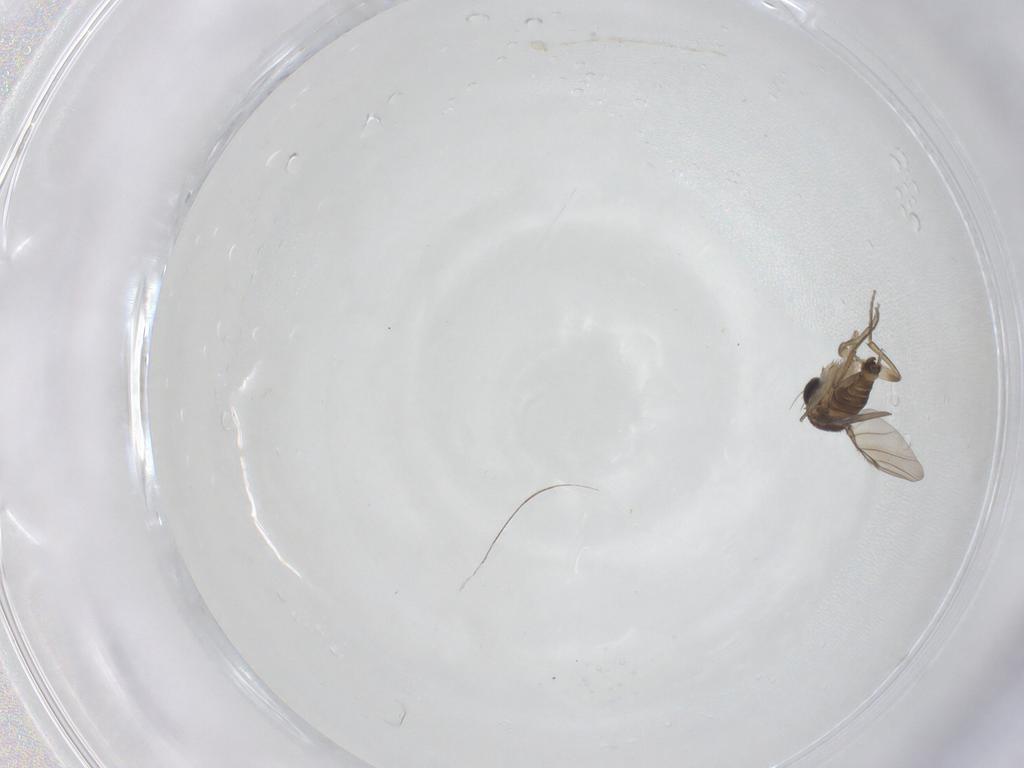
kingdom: Animalia
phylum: Arthropoda
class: Insecta
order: Diptera
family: Phoridae
